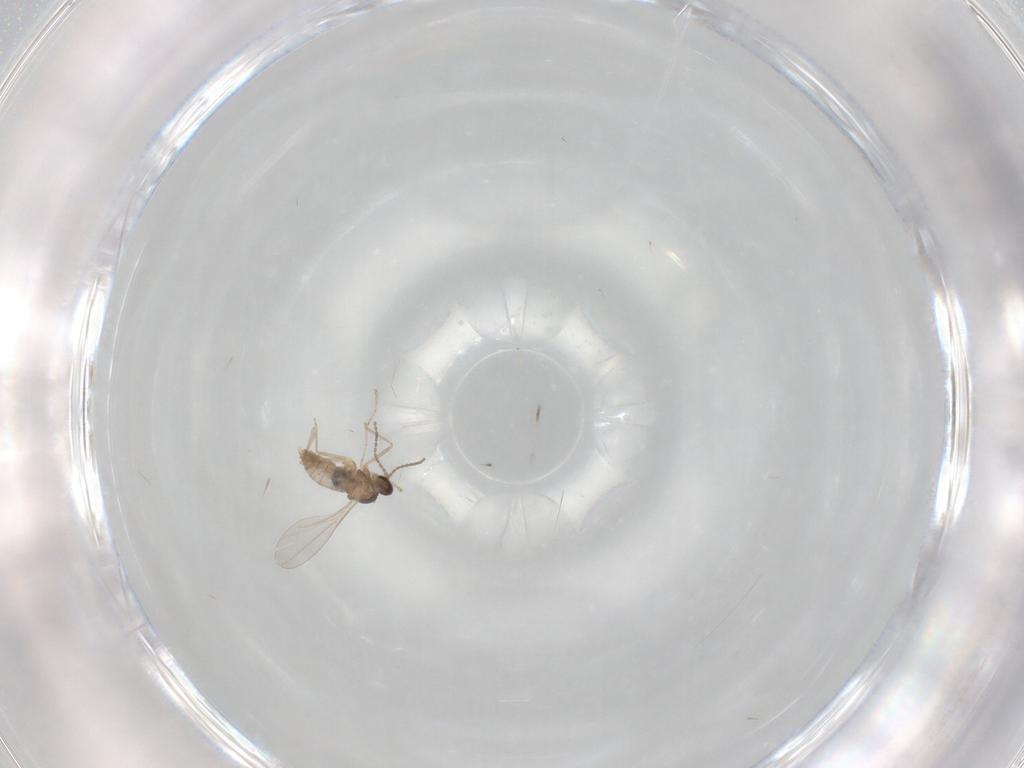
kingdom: Animalia
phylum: Arthropoda
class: Insecta
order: Diptera
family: Cecidomyiidae
